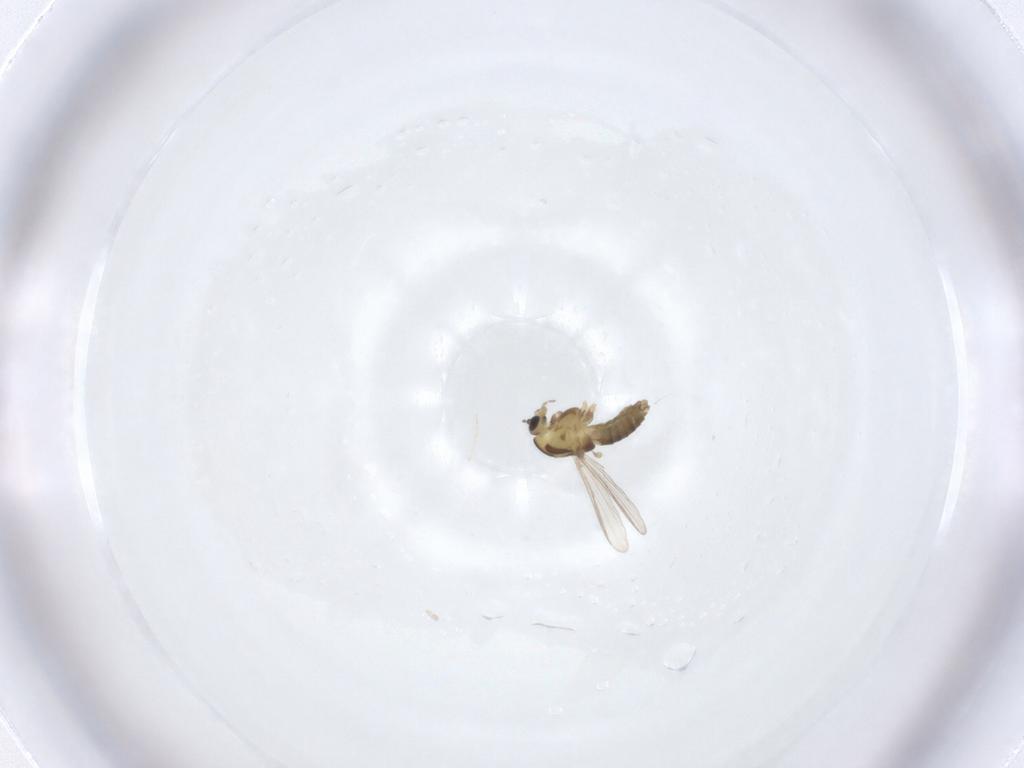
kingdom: Animalia
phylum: Arthropoda
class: Insecta
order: Diptera
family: Chironomidae
